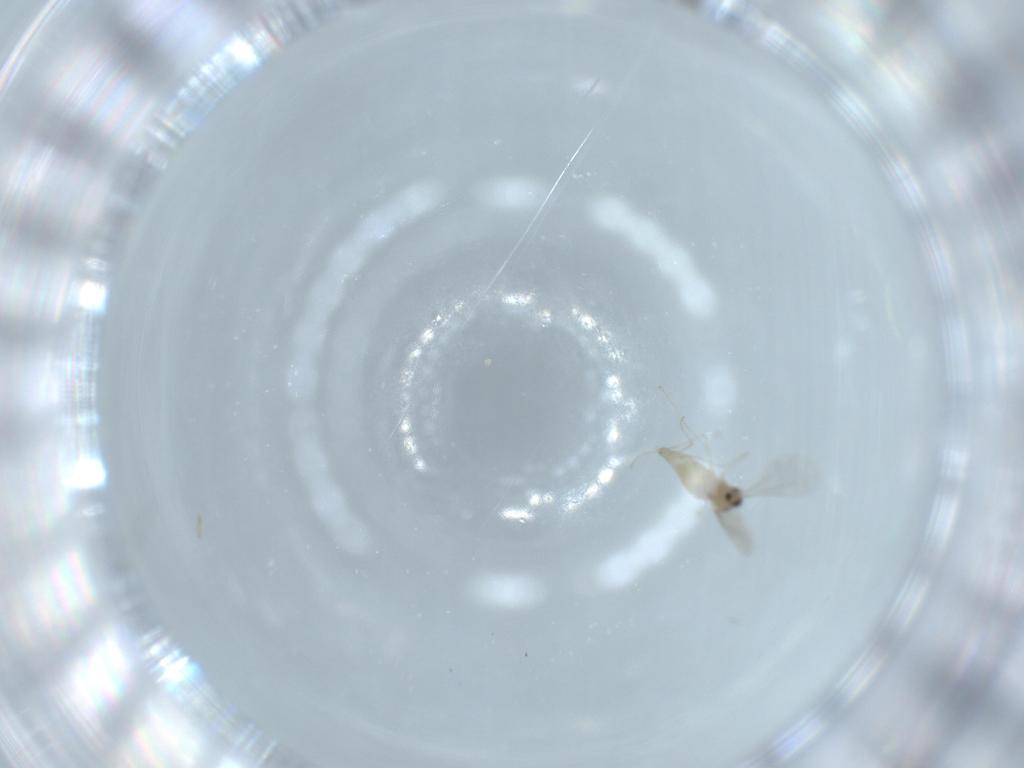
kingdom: Animalia
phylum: Arthropoda
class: Insecta
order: Diptera
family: Cecidomyiidae
